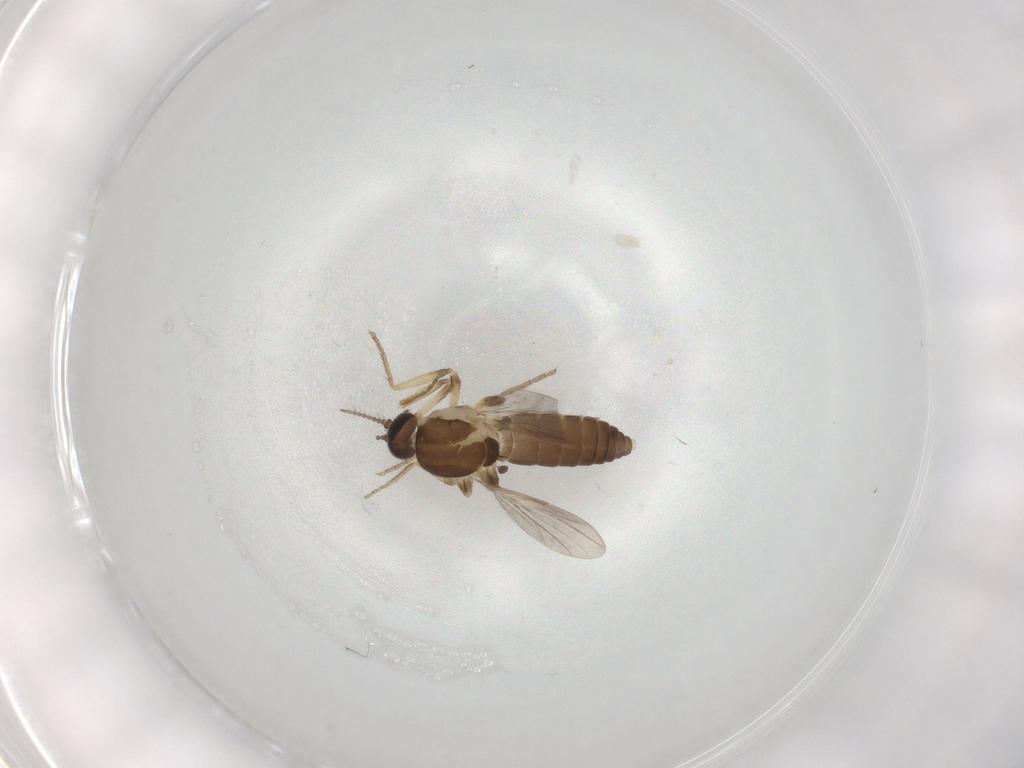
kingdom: Animalia
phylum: Arthropoda
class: Insecta
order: Diptera
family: Ceratopogonidae
